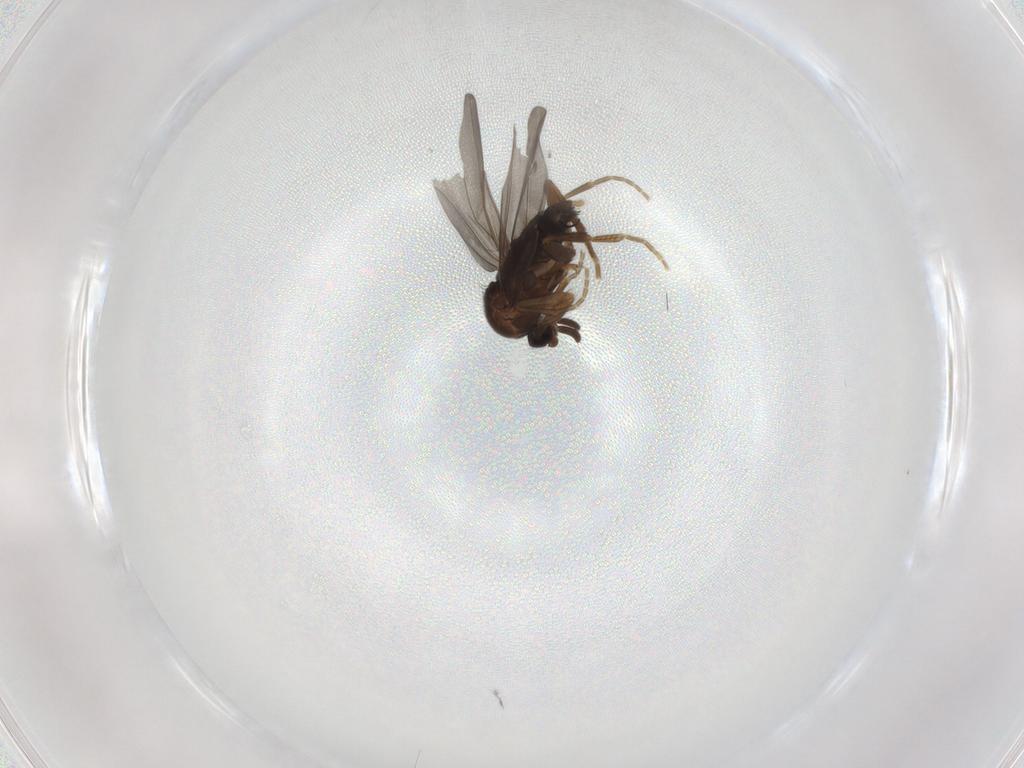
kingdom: Animalia
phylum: Arthropoda
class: Insecta
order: Diptera
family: Phoridae
